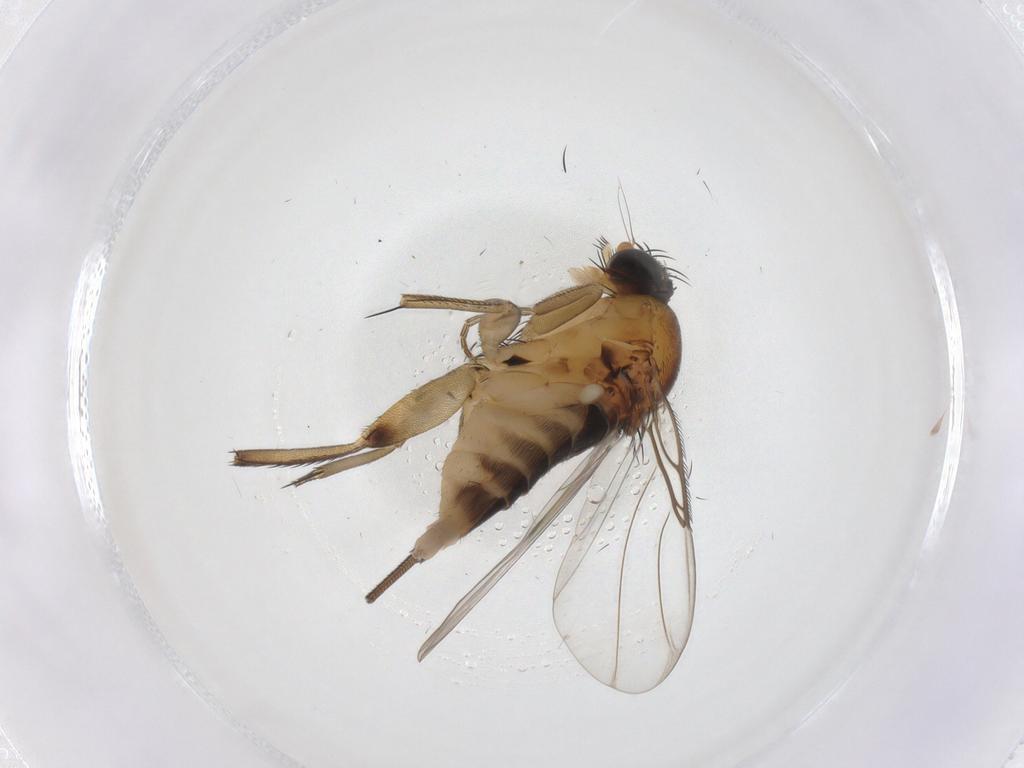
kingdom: Animalia
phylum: Arthropoda
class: Insecta
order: Diptera
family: Phoridae
